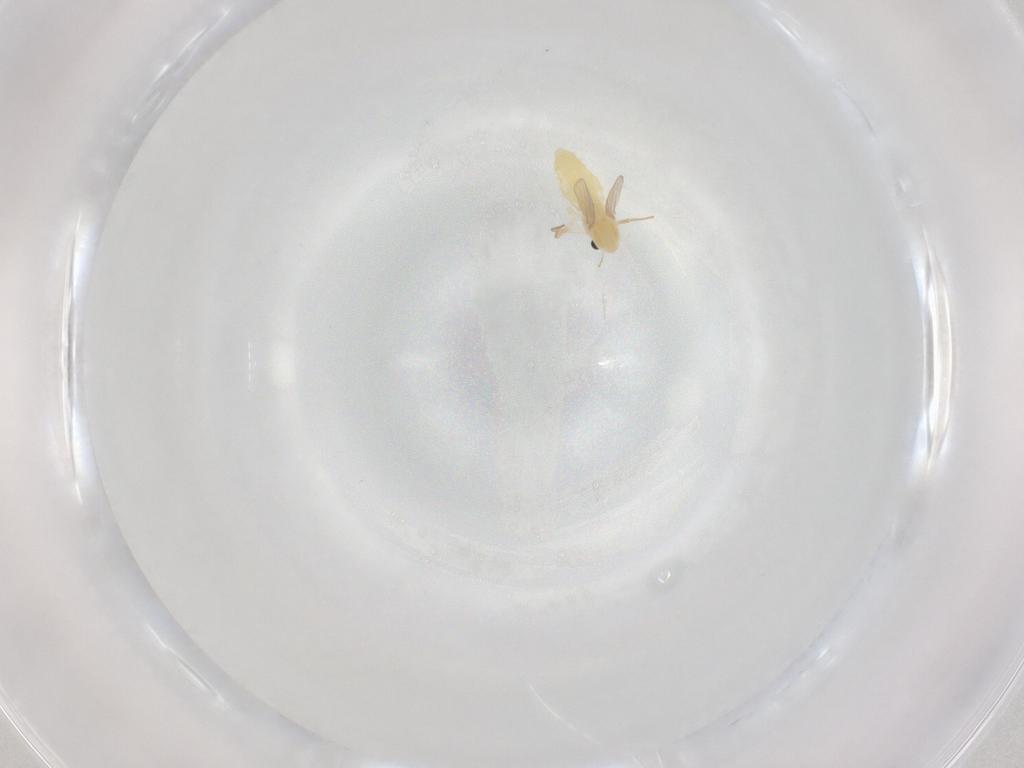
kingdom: Animalia
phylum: Arthropoda
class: Insecta
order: Diptera
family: Chironomidae
